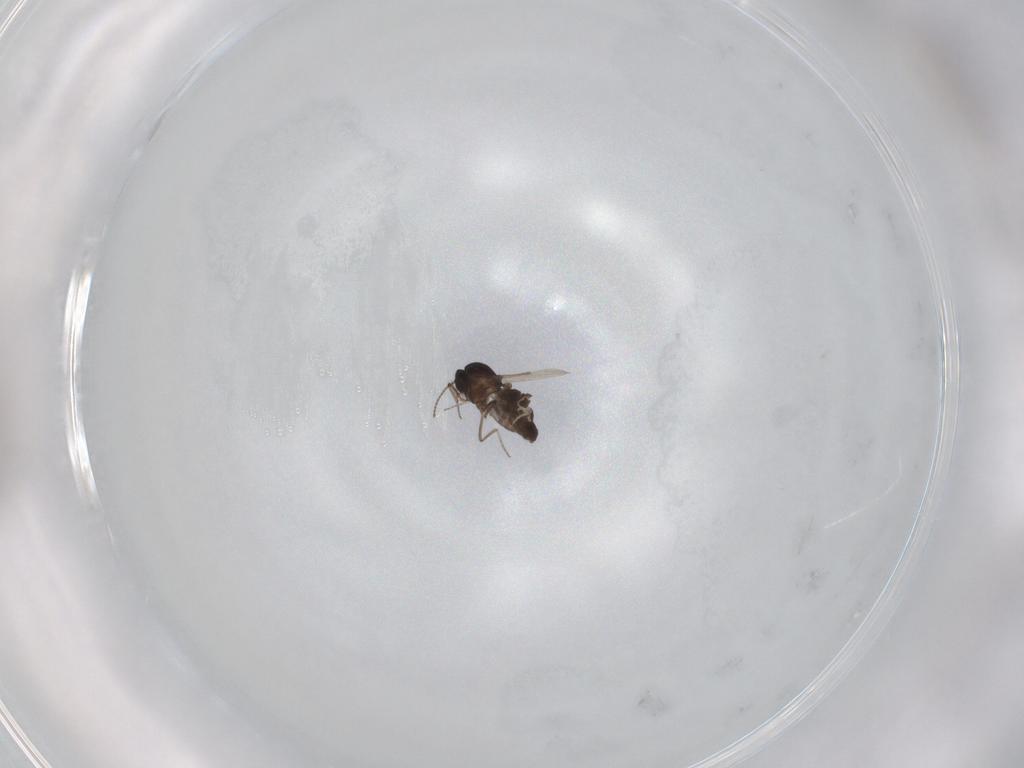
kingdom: Animalia
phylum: Arthropoda
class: Insecta
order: Diptera
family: Ceratopogonidae
